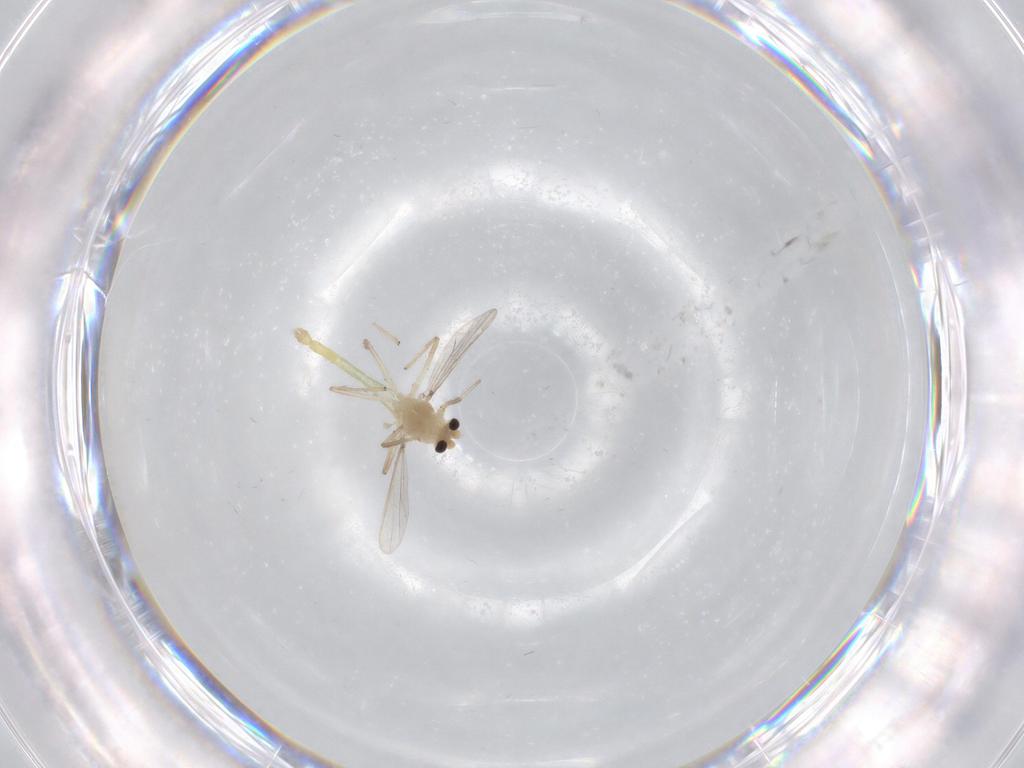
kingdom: Animalia
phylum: Arthropoda
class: Insecta
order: Diptera
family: Chironomidae
